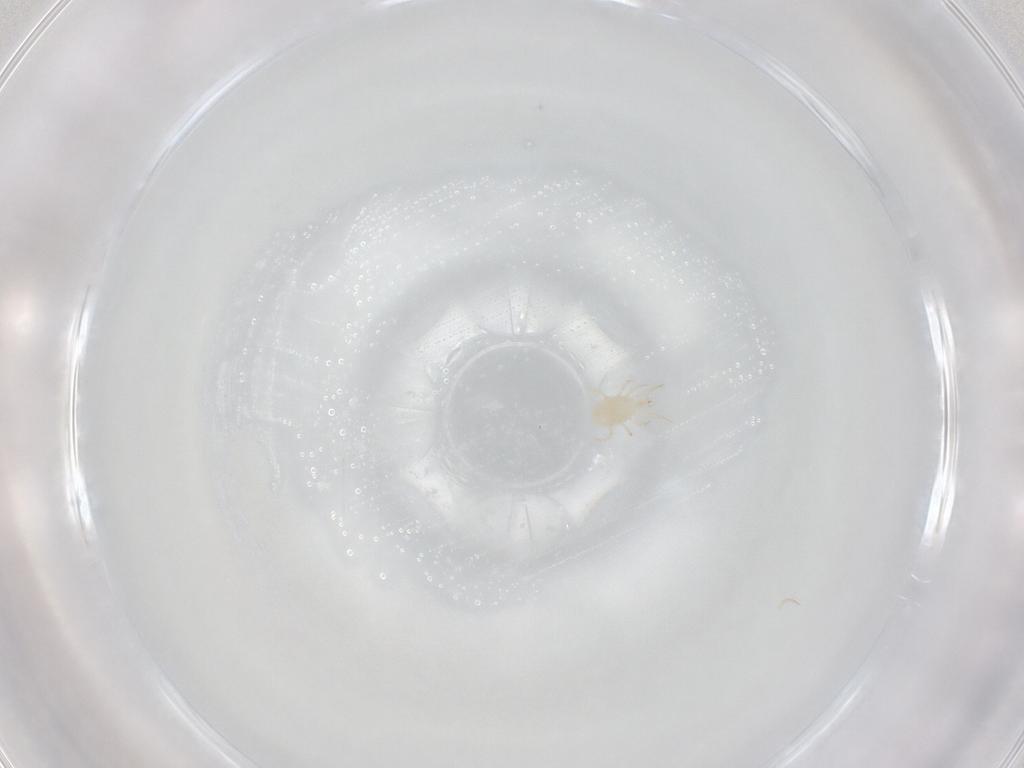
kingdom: Animalia
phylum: Arthropoda
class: Arachnida
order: Mesostigmata
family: Phytoseiidae
